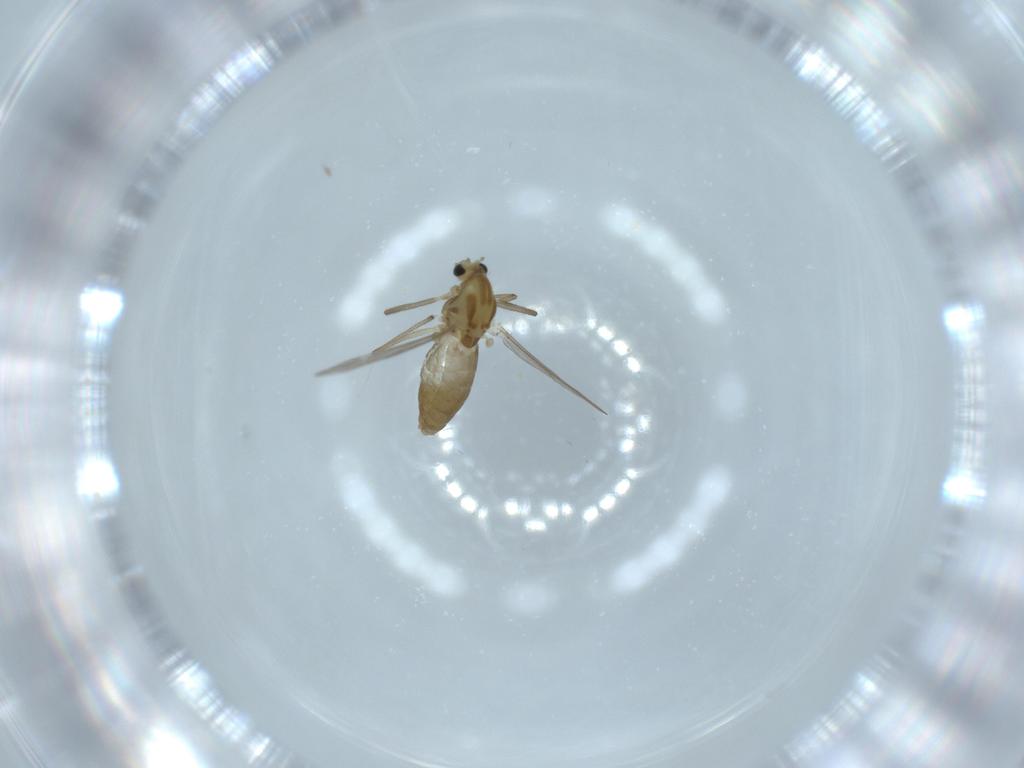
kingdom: Animalia
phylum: Arthropoda
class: Insecta
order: Diptera
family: Chironomidae
